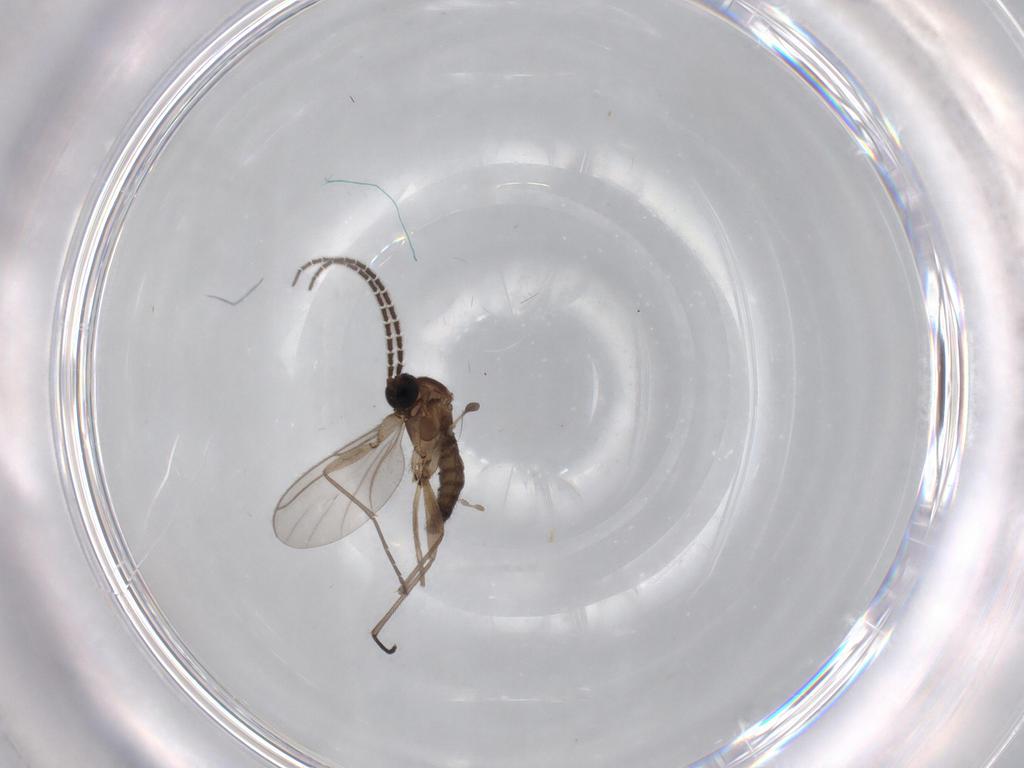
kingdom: Animalia
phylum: Arthropoda
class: Insecta
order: Diptera
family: Sciaridae
